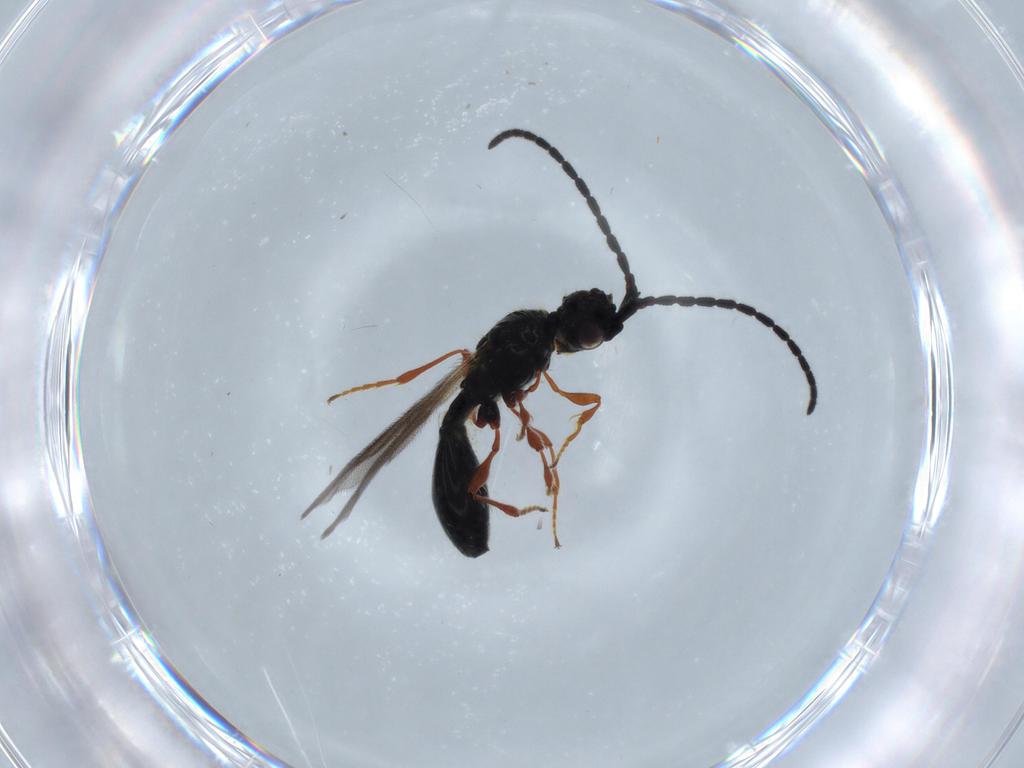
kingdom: Animalia
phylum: Arthropoda
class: Insecta
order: Hymenoptera
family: Diapriidae
